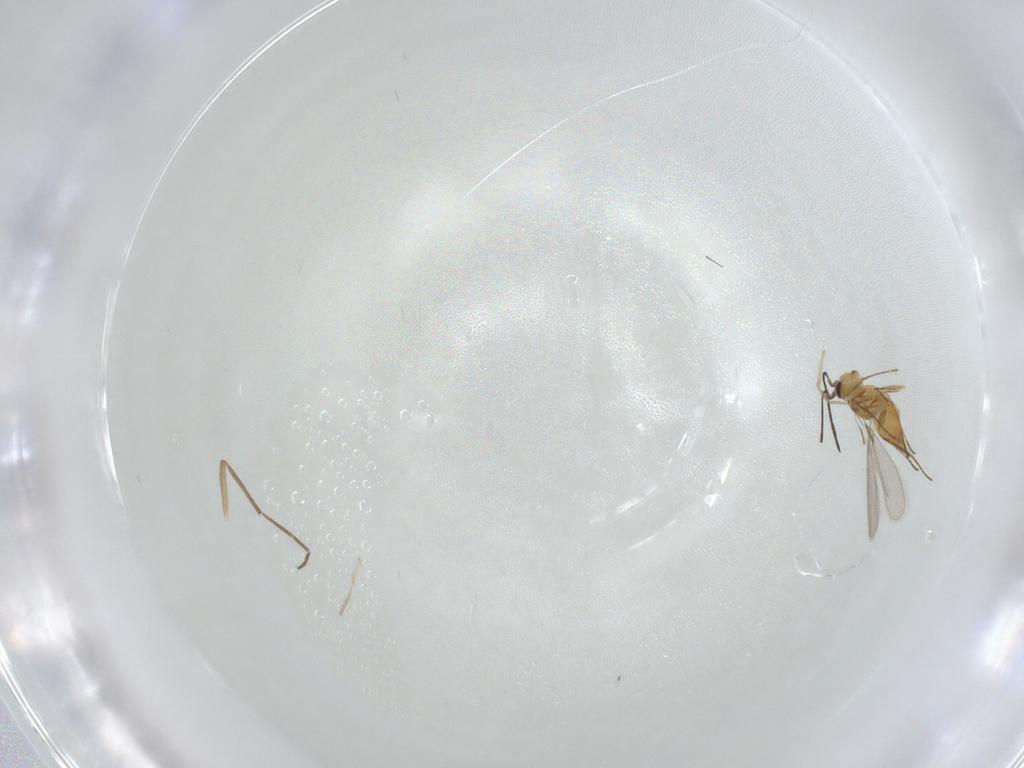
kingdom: Animalia
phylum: Arthropoda
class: Insecta
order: Hymenoptera
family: Mymaridae
